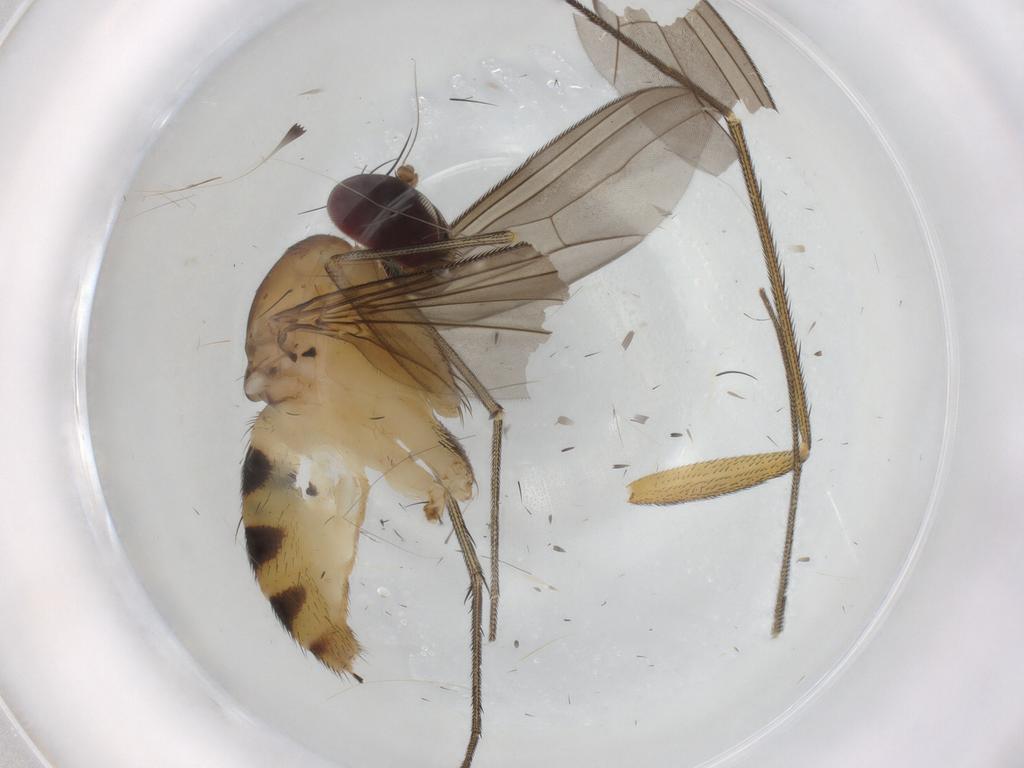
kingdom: Animalia
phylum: Arthropoda
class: Insecta
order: Diptera
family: Dolichopodidae
